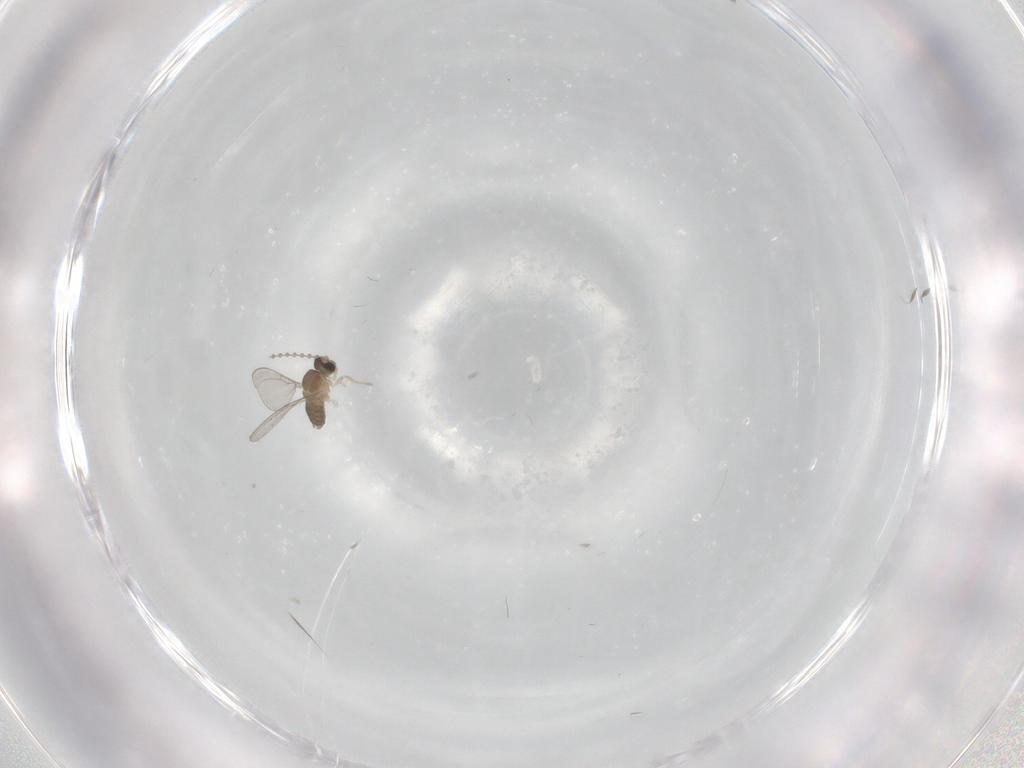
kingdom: Animalia
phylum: Arthropoda
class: Insecta
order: Diptera
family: Cecidomyiidae
